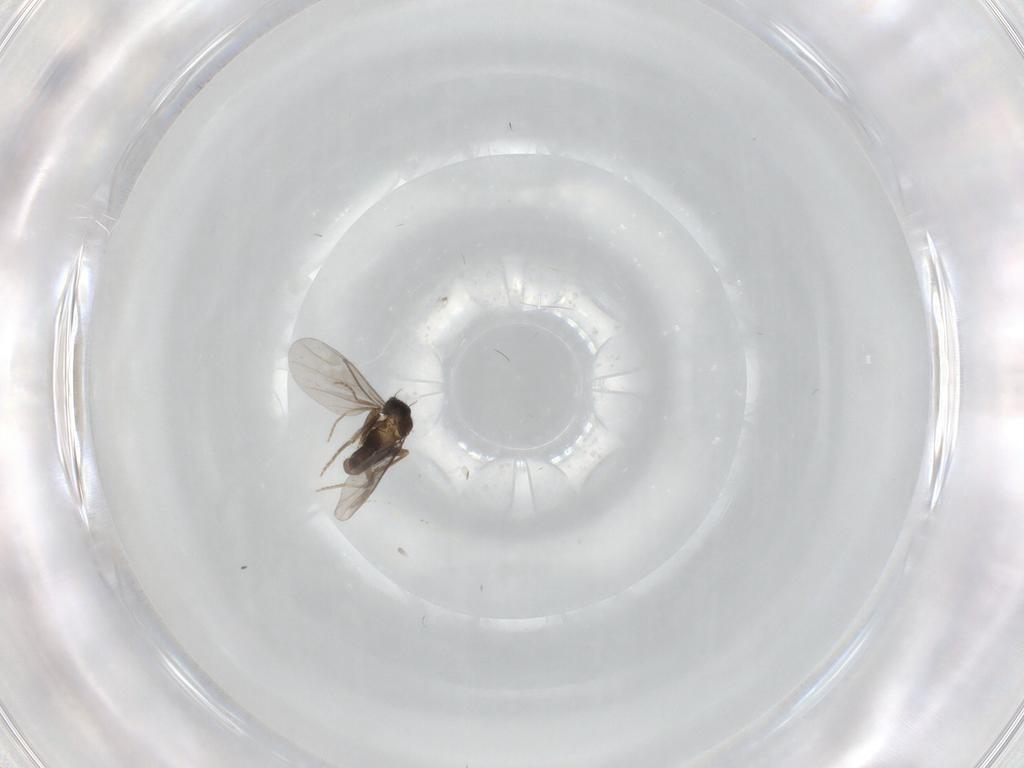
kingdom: Animalia
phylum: Arthropoda
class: Insecta
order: Diptera
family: Cecidomyiidae
